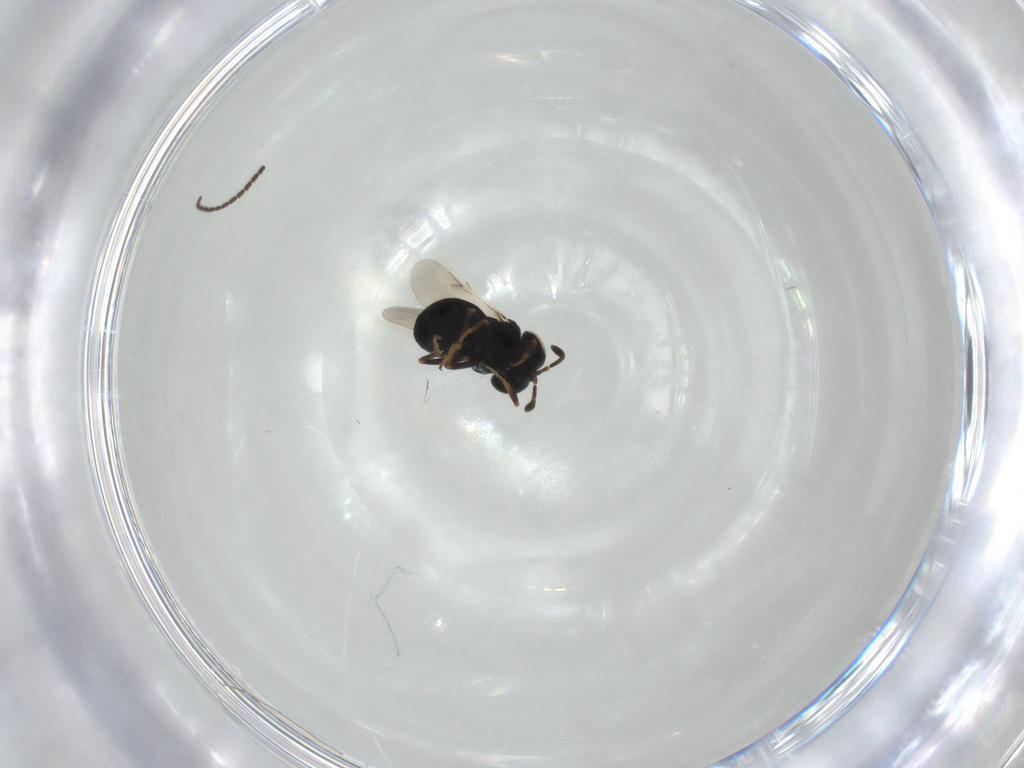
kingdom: Animalia
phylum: Arthropoda
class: Insecta
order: Hymenoptera
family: Scelionidae
